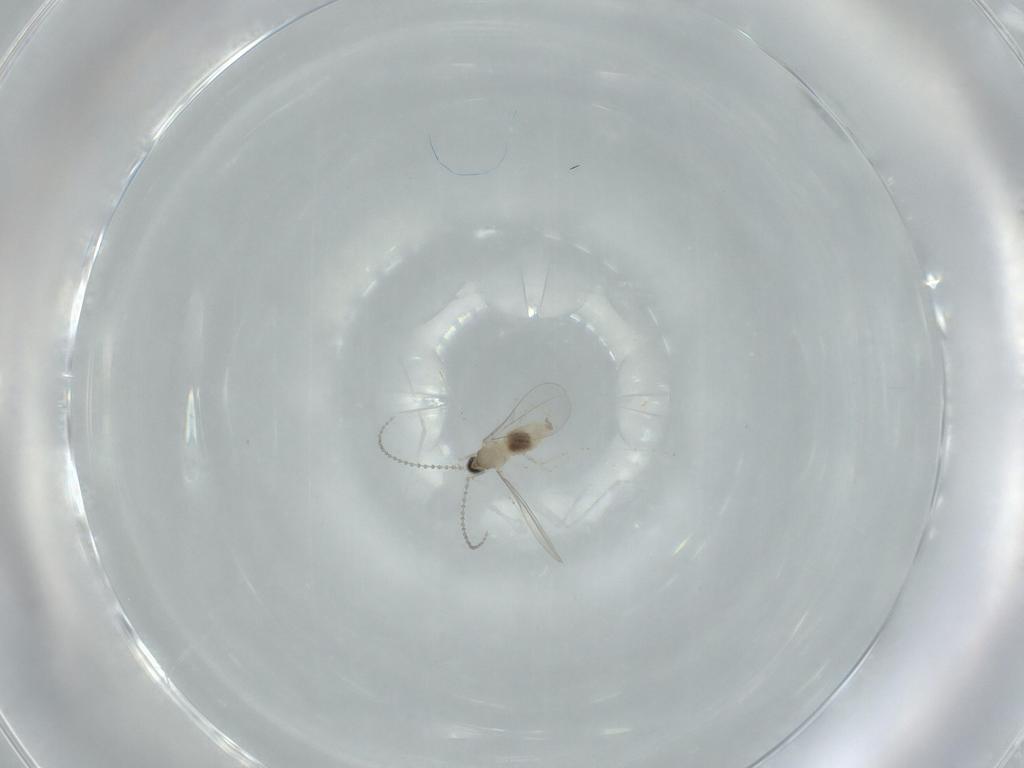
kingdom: Animalia
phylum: Arthropoda
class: Insecta
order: Diptera
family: Cecidomyiidae
